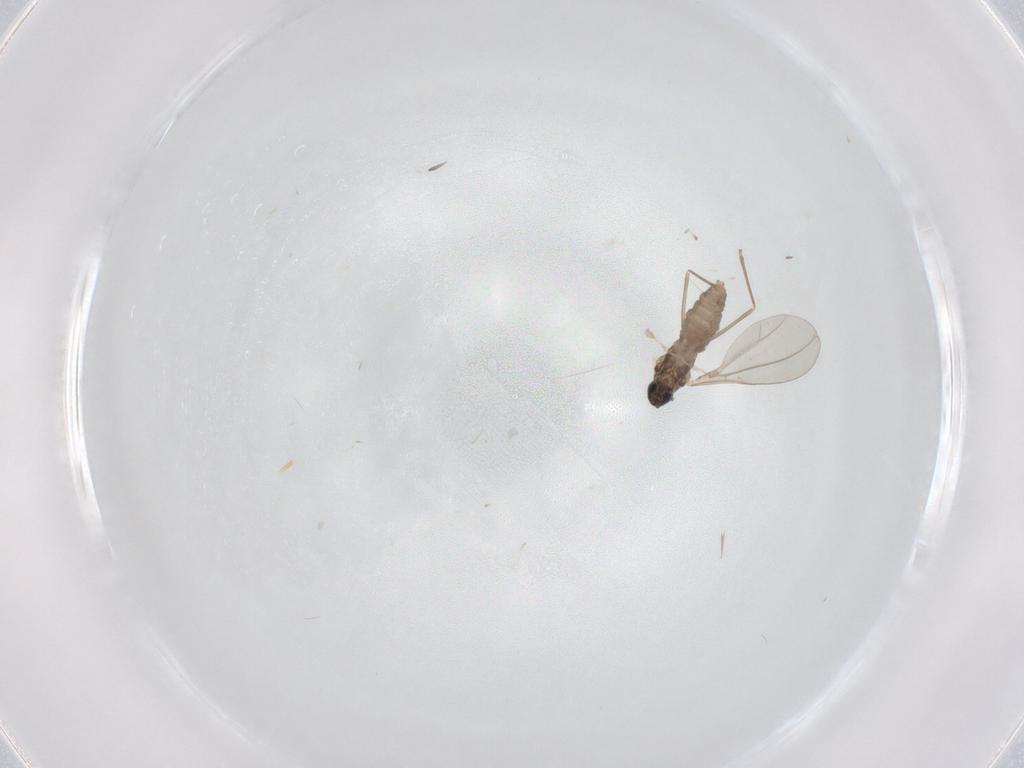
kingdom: Animalia
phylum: Arthropoda
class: Insecta
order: Diptera
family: Cecidomyiidae
